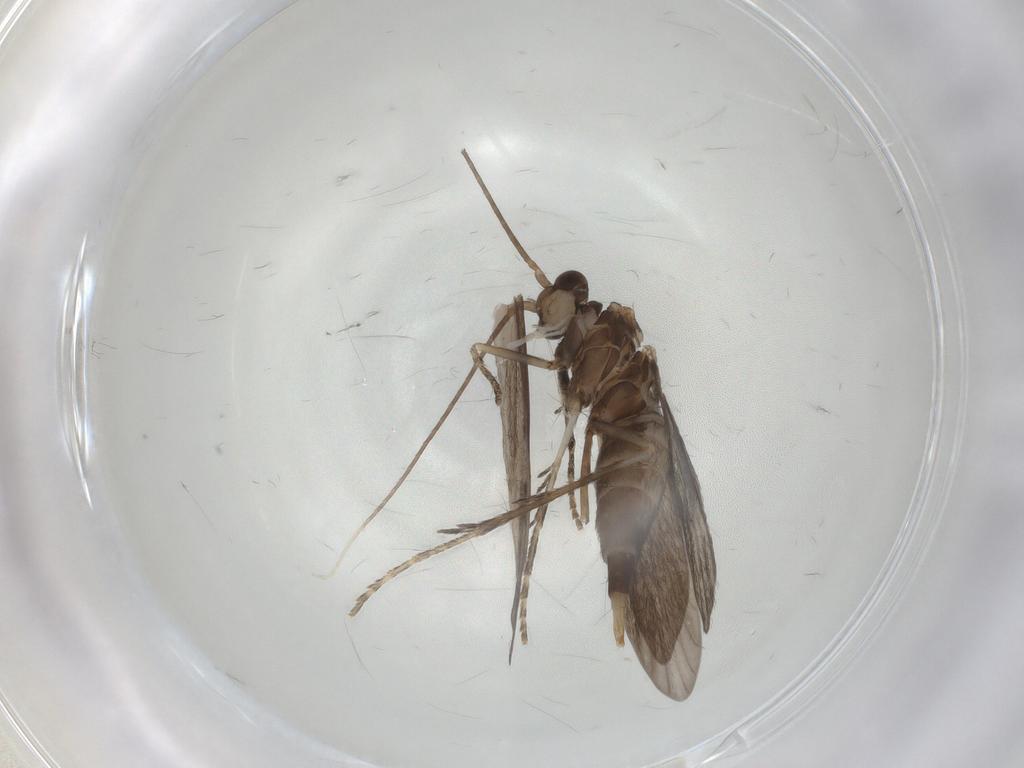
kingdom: Animalia
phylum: Arthropoda
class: Insecta
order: Trichoptera
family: Xiphocentronidae
